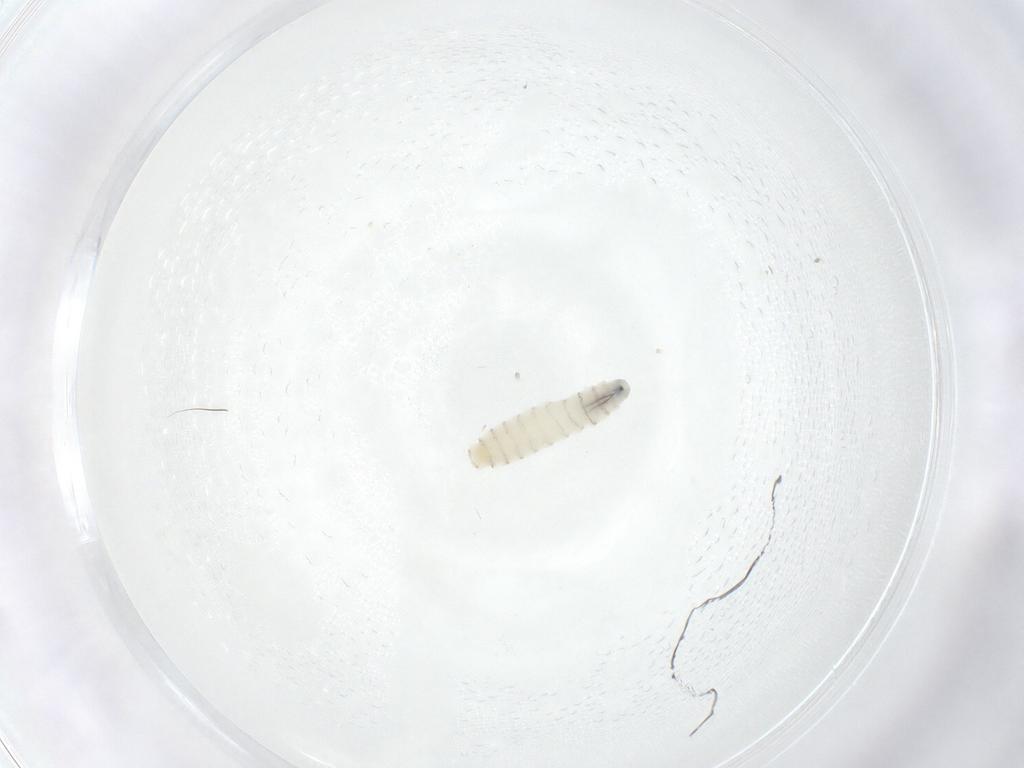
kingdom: Animalia
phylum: Arthropoda
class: Insecta
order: Diptera
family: Sarcophagidae
